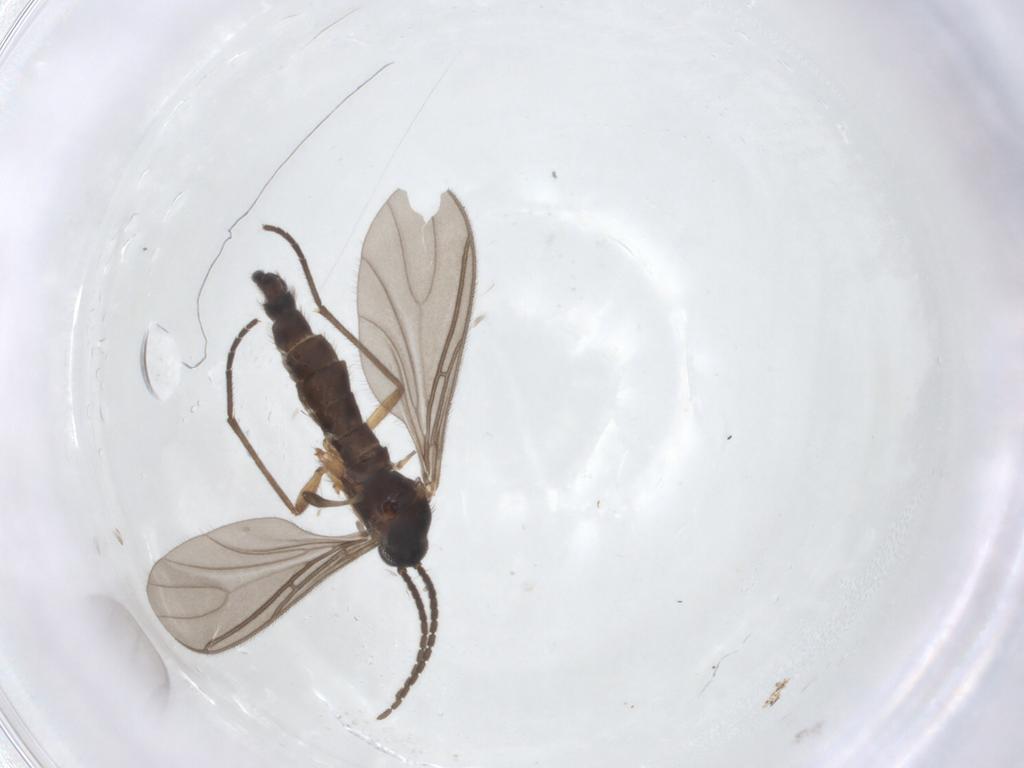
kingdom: Animalia
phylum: Arthropoda
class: Insecta
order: Diptera
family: Sciaridae
